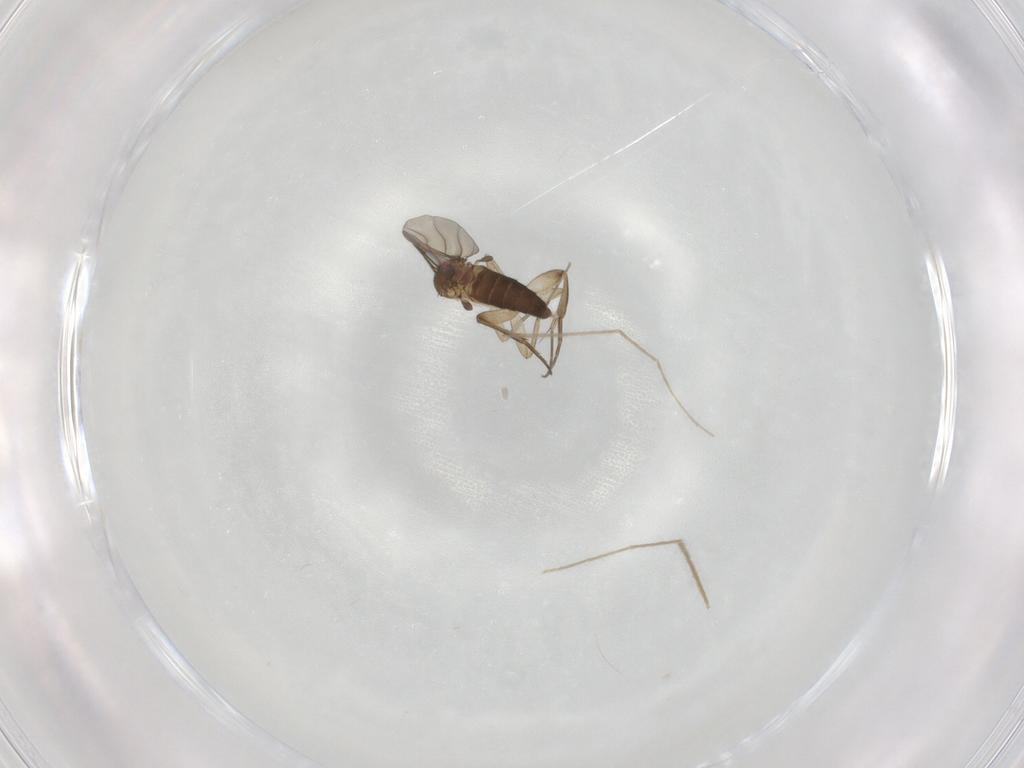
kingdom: Animalia
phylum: Arthropoda
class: Insecta
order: Diptera
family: Phoridae
